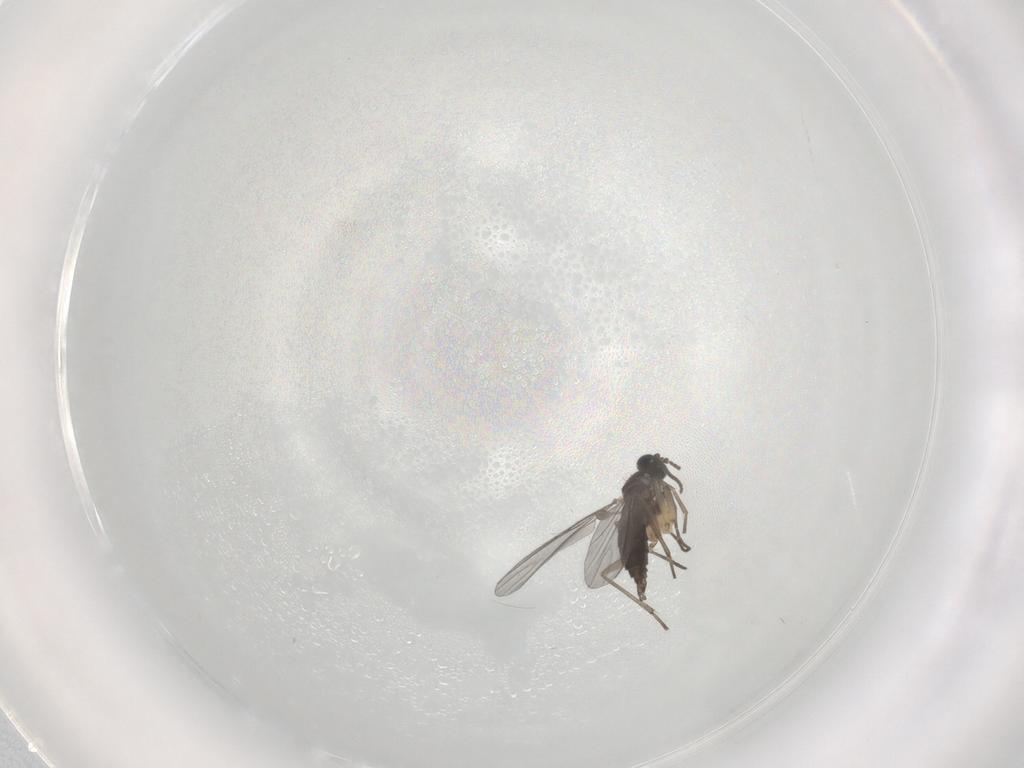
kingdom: Animalia
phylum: Arthropoda
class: Insecta
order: Diptera
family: Sciaridae
